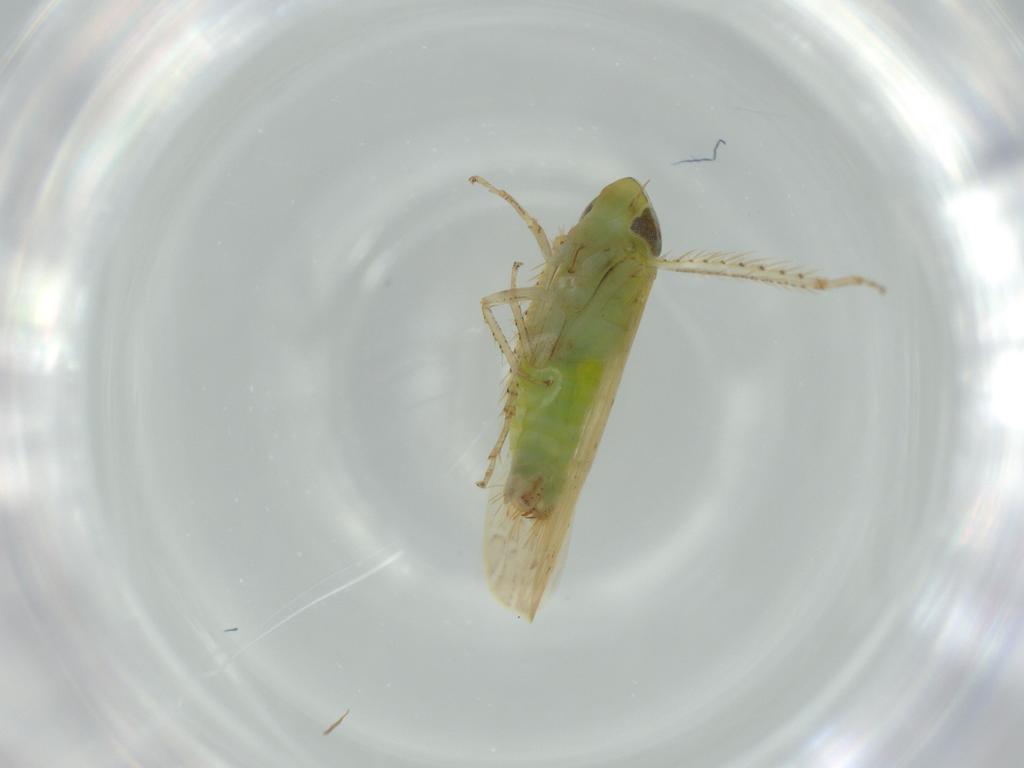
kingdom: Animalia
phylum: Arthropoda
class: Insecta
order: Hemiptera
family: Cicadellidae
